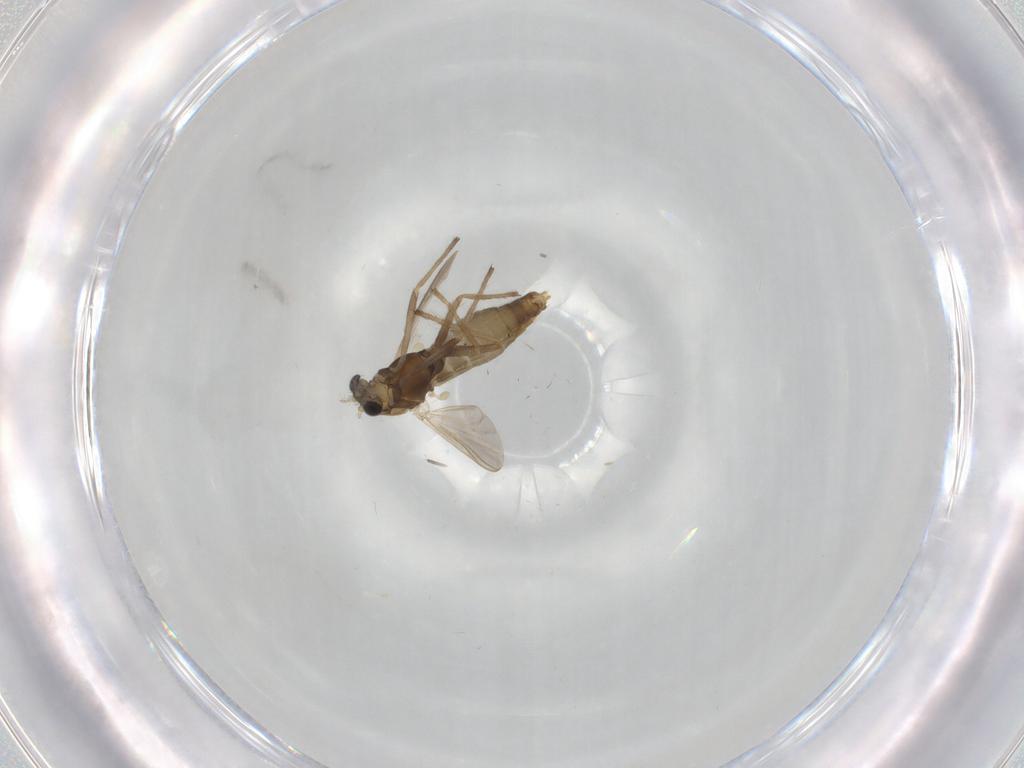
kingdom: Animalia
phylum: Arthropoda
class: Insecta
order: Diptera
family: Chironomidae
